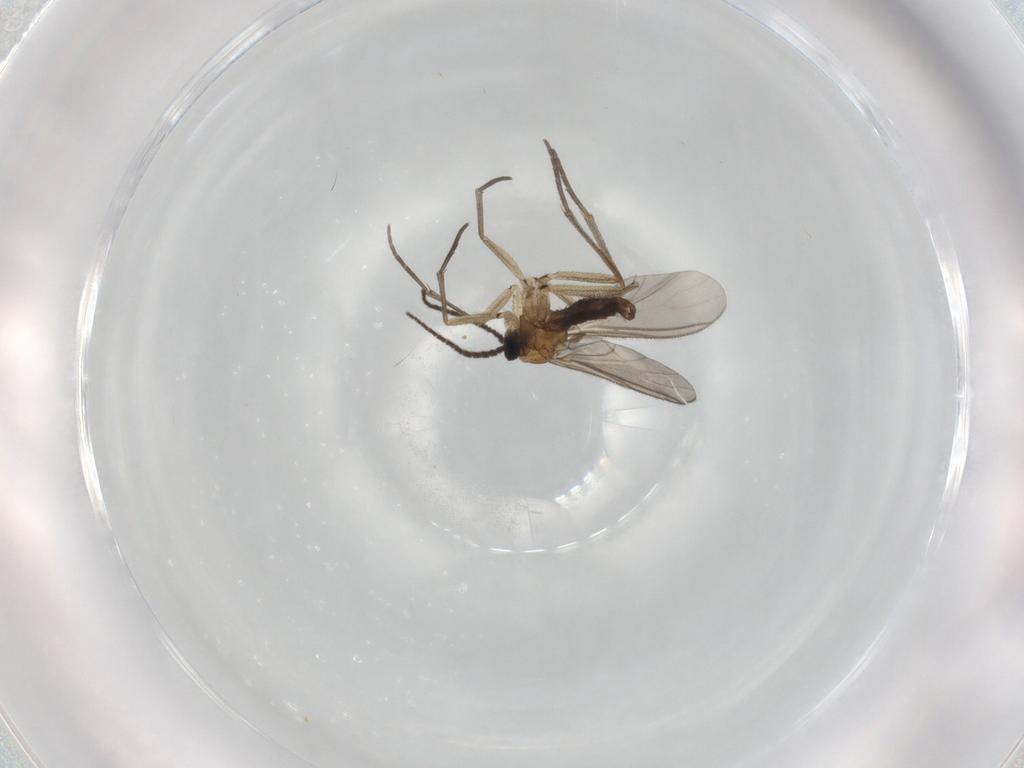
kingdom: Animalia
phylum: Arthropoda
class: Insecta
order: Diptera
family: Sciaridae
